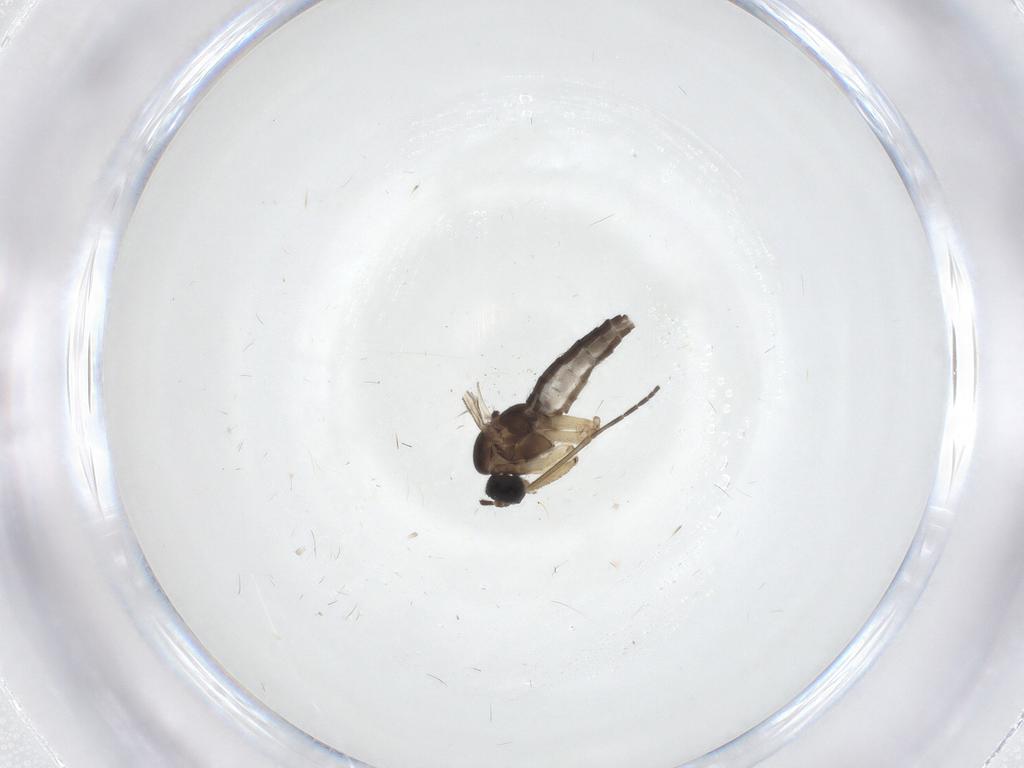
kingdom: Animalia
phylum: Arthropoda
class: Insecta
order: Diptera
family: Sciaridae
